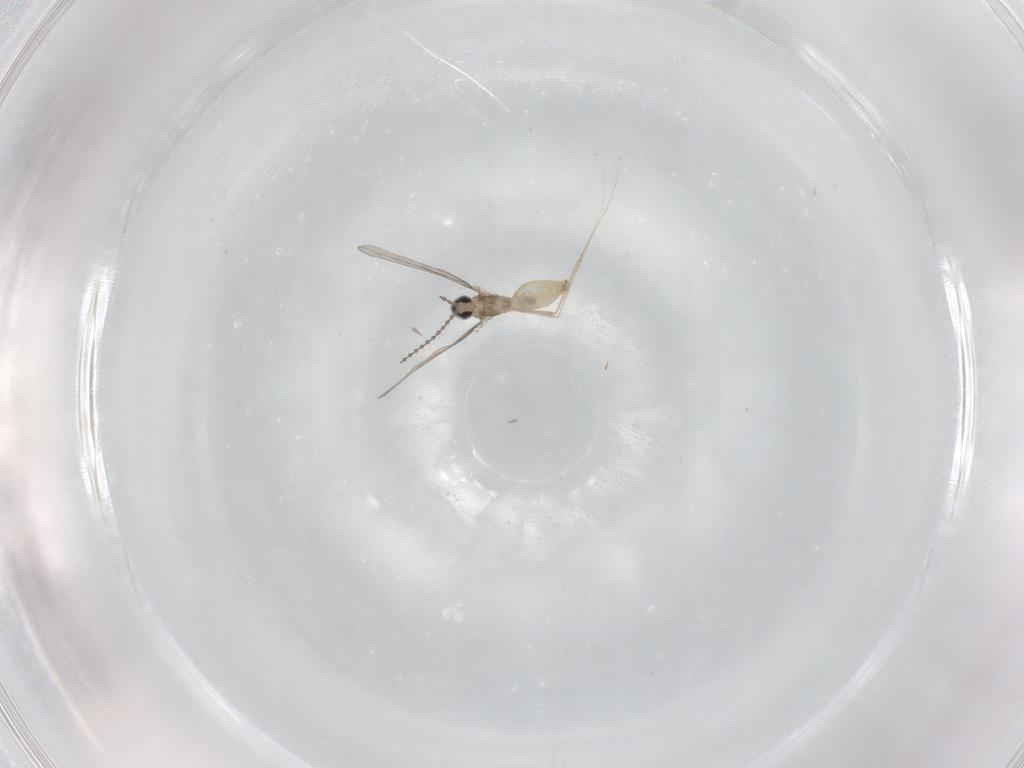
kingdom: Animalia
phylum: Arthropoda
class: Insecta
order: Diptera
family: Cecidomyiidae
